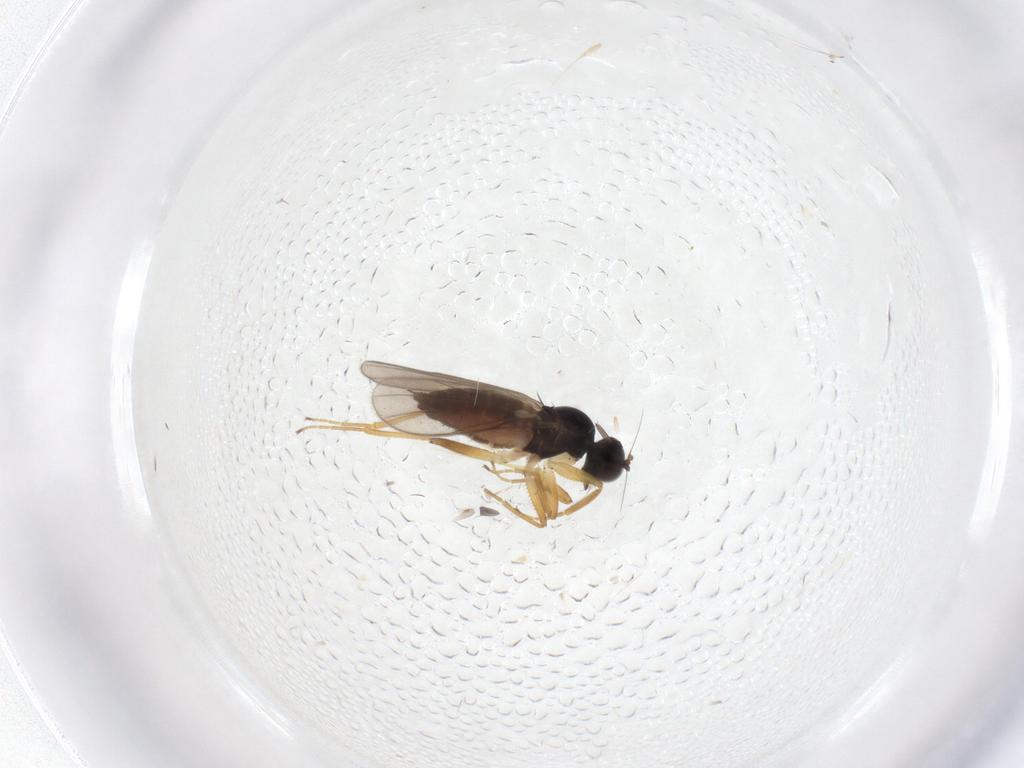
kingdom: Animalia
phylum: Arthropoda
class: Insecta
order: Diptera
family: Hybotidae
